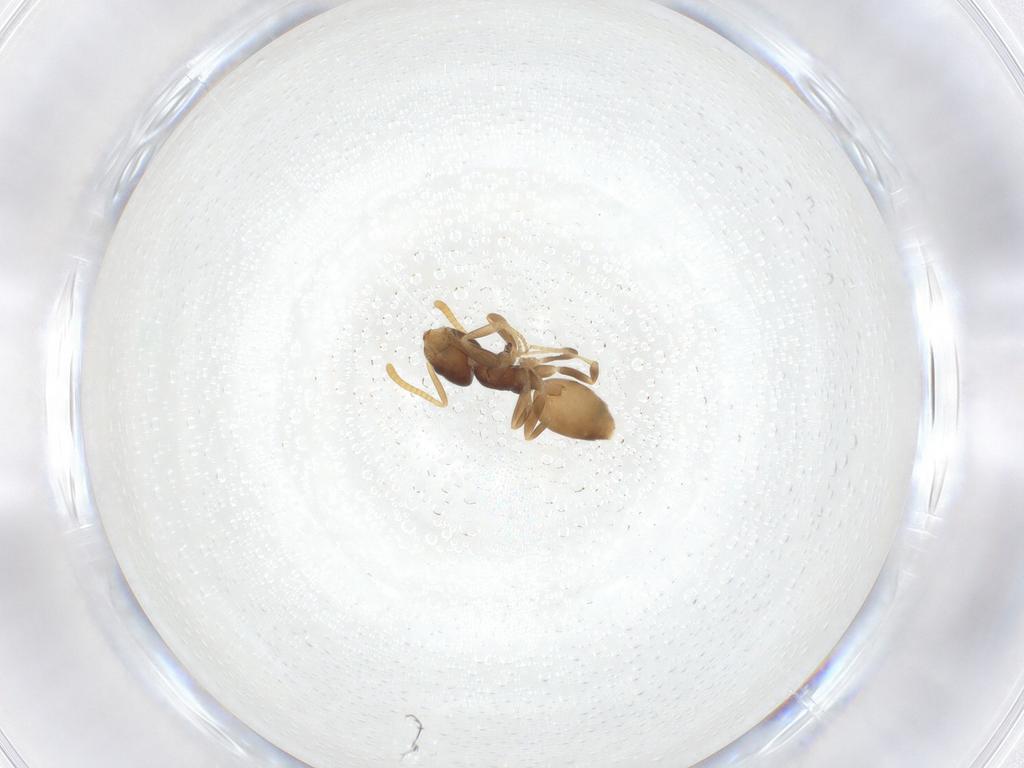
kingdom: Animalia
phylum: Arthropoda
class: Insecta
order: Hymenoptera
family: Formicidae
